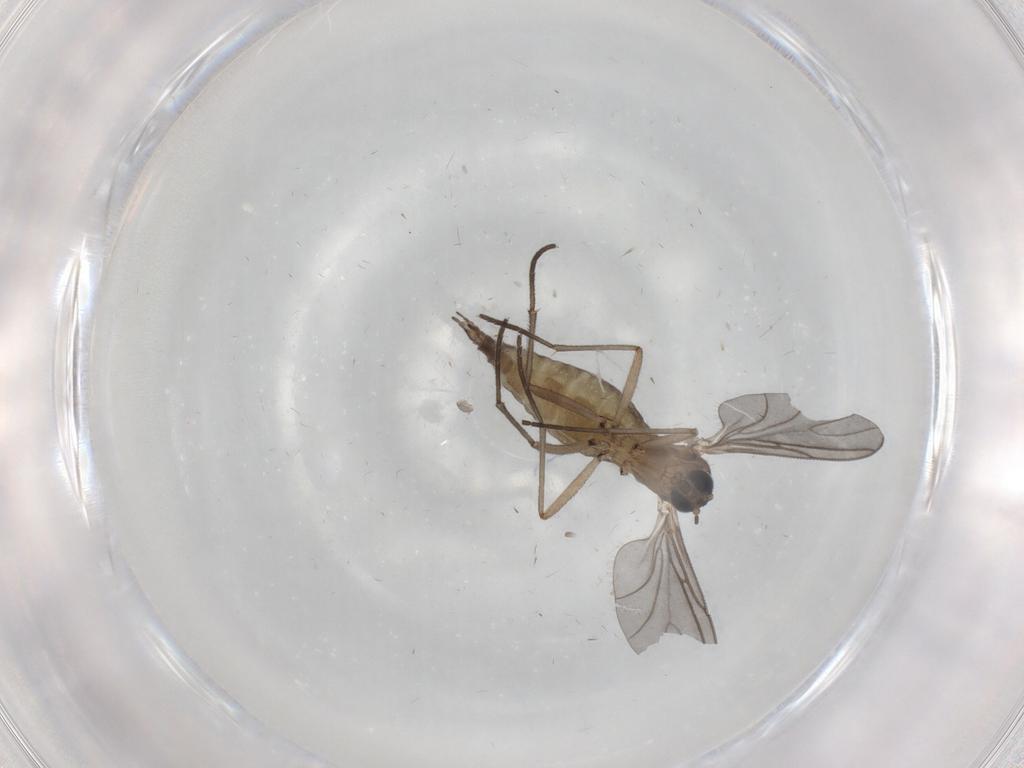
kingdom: Animalia
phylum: Arthropoda
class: Insecta
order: Diptera
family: Phoridae
